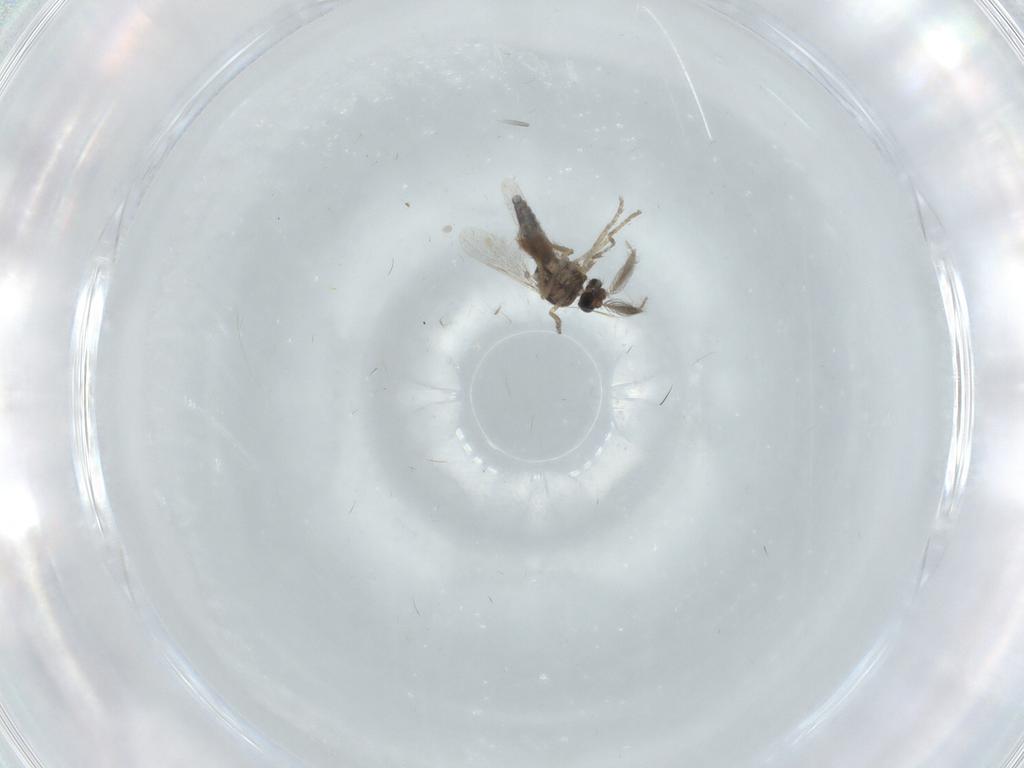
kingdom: Animalia
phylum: Arthropoda
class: Insecta
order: Diptera
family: Ceratopogonidae
